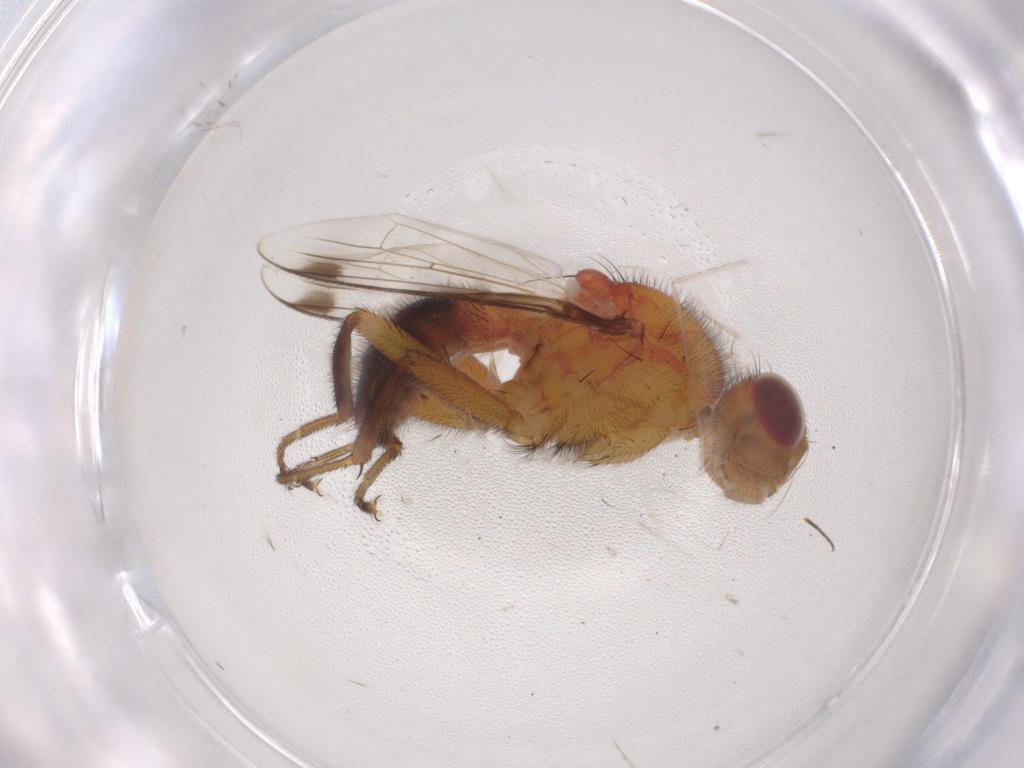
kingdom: Animalia
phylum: Arthropoda
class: Insecta
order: Diptera
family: Richardiidae
